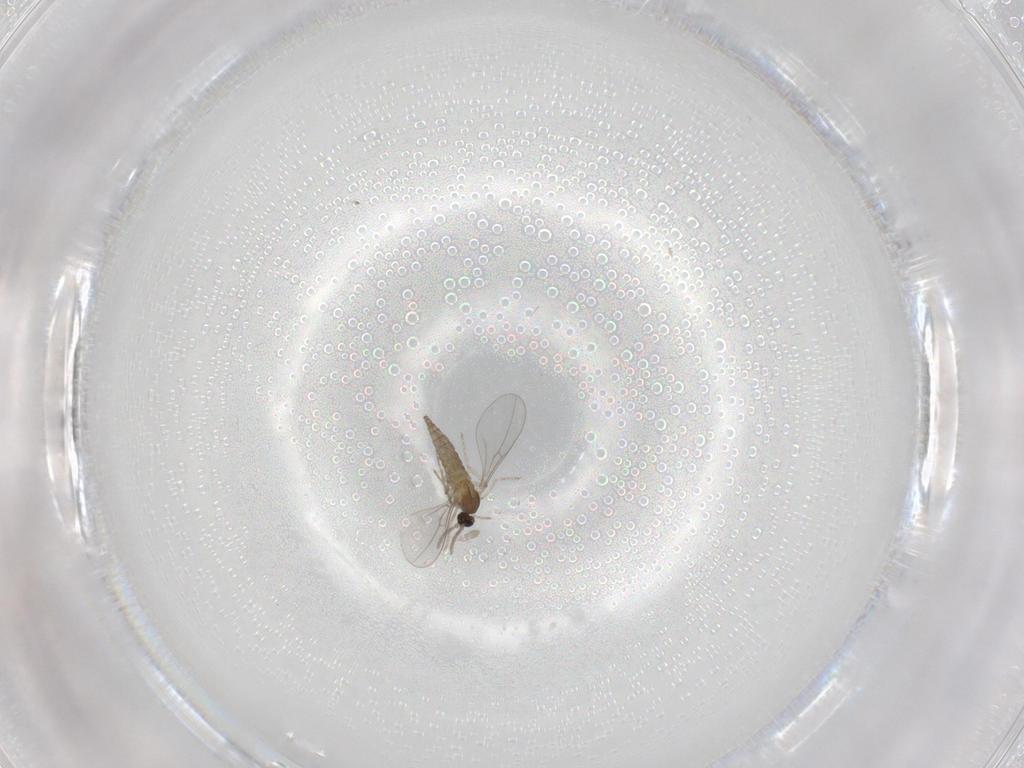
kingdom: Animalia
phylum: Arthropoda
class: Insecta
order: Diptera
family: Cecidomyiidae
